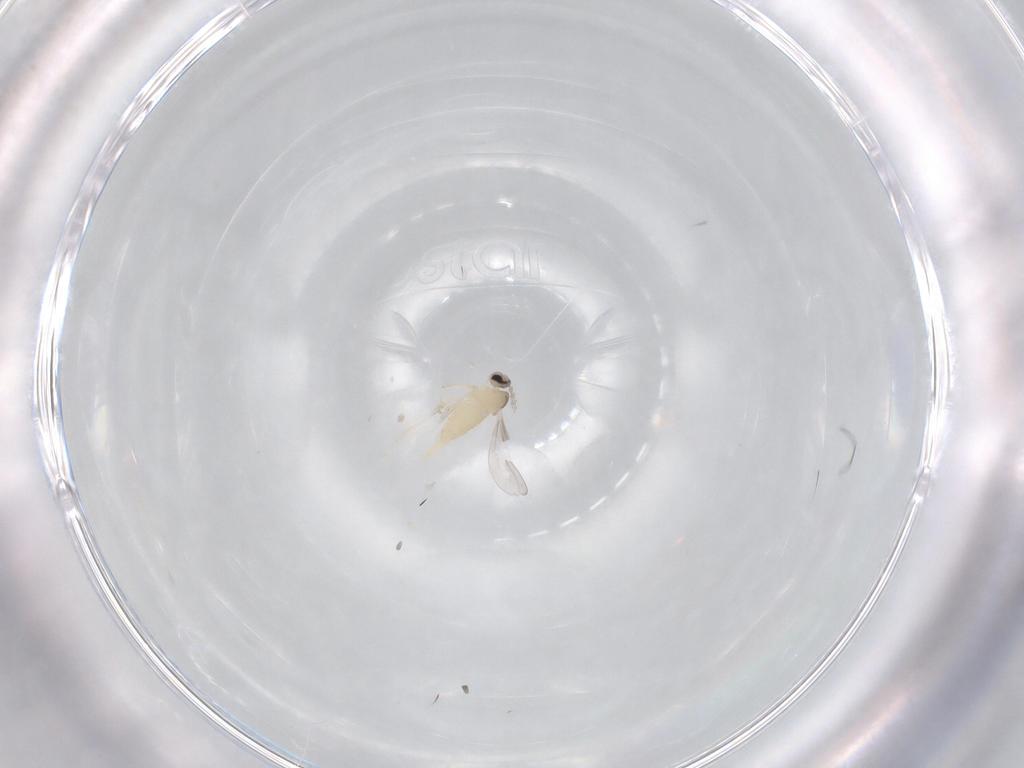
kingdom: Animalia
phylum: Arthropoda
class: Insecta
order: Diptera
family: Cecidomyiidae
